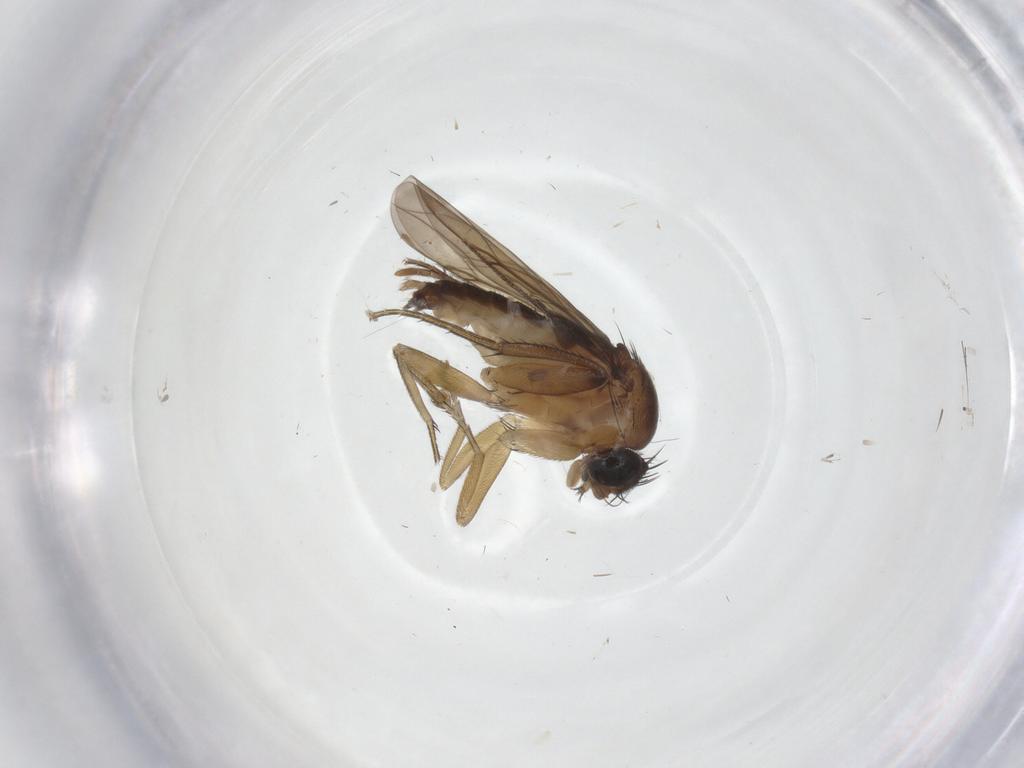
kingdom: Animalia
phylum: Arthropoda
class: Insecta
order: Diptera
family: Phoridae
